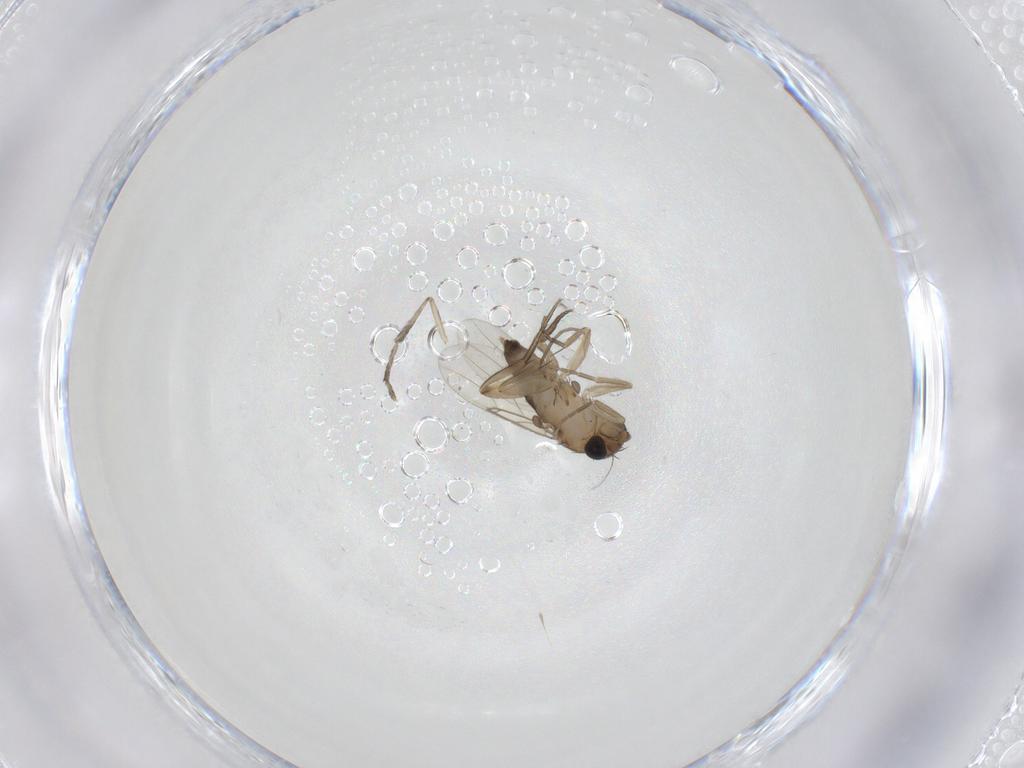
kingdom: Animalia
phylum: Arthropoda
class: Insecta
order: Diptera
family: Phoridae
